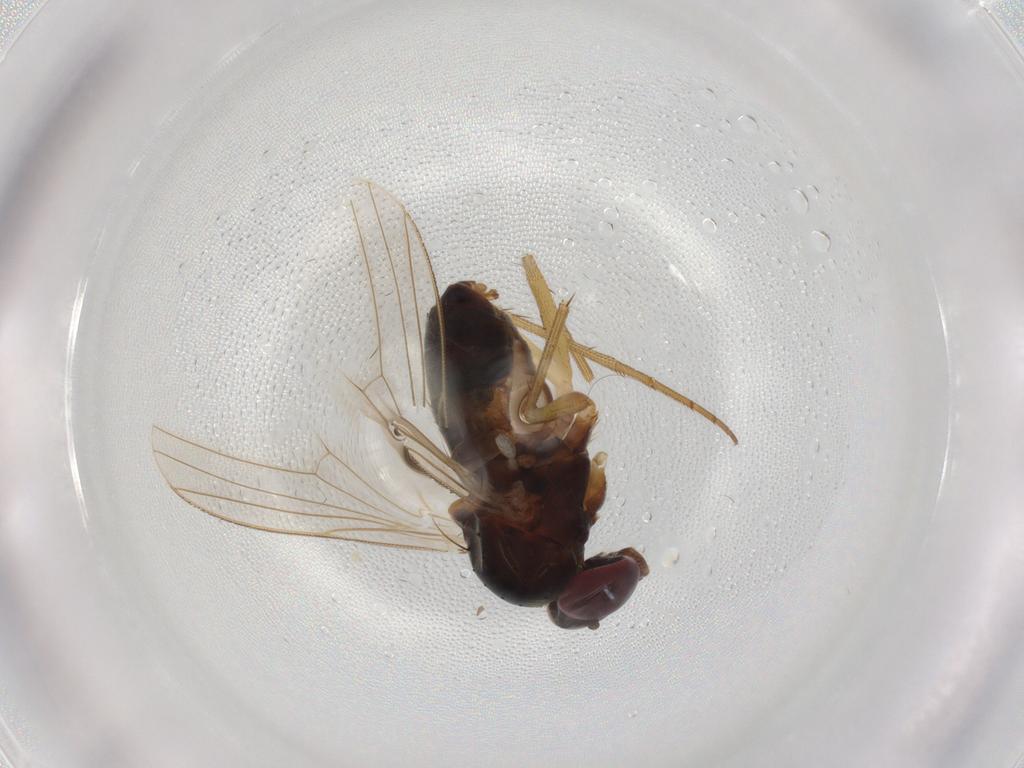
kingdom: Animalia
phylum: Arthropoda
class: Insecta
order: Diptera
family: Dolichopodidae
